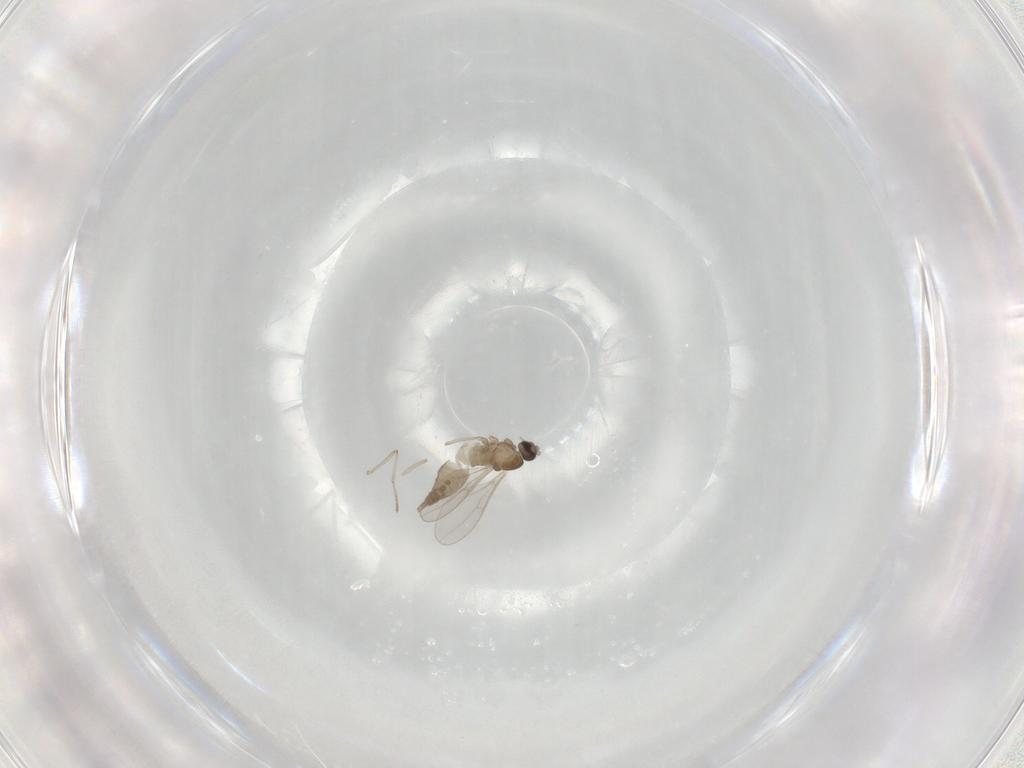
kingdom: Animalia
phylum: Arthropoda
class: Insecta
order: Diptera
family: Cecidomyiidae
